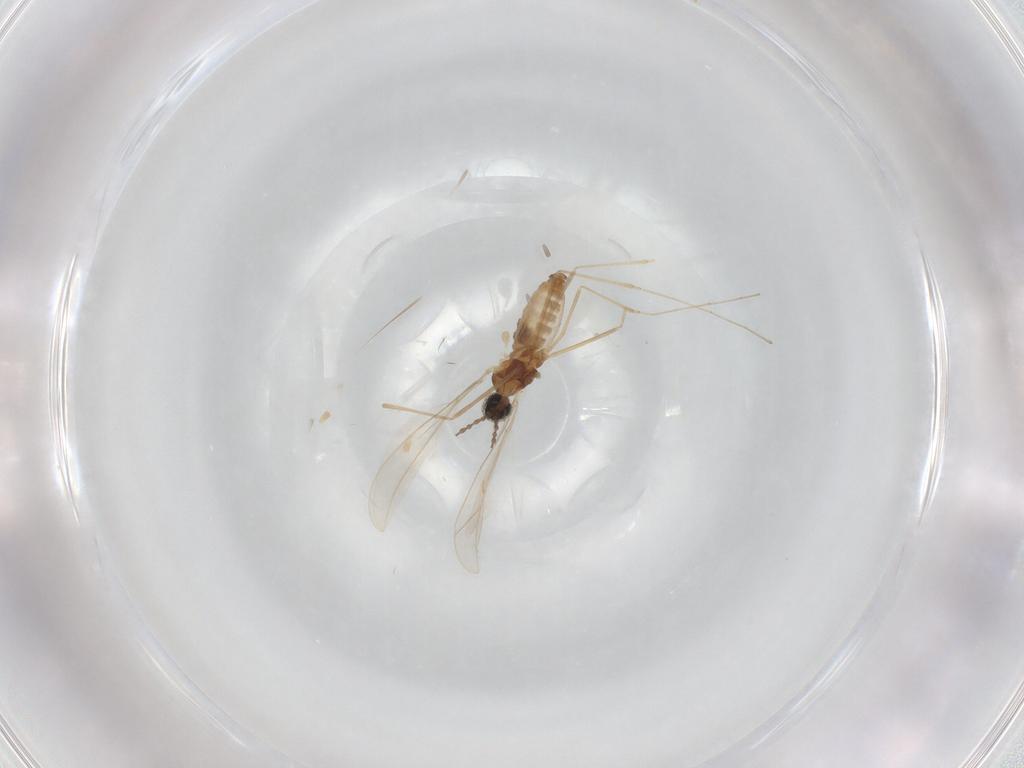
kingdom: Animalia
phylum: Arthropoda
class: Insecta
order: Diptera
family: Cecidomyiidae
